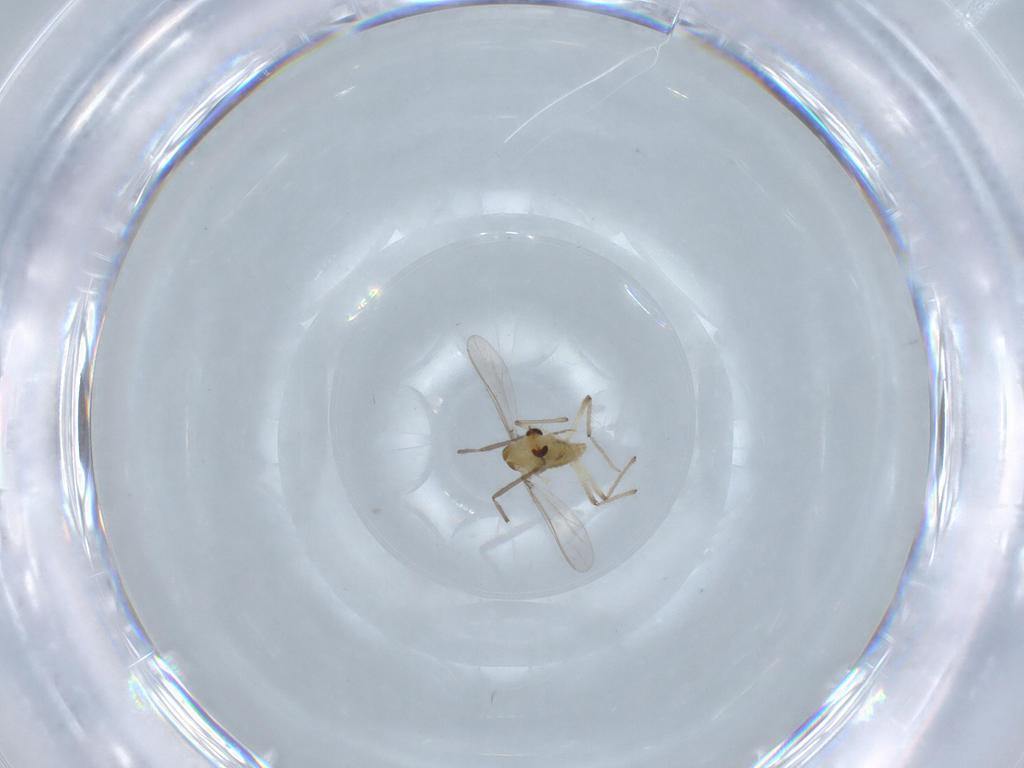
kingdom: Animalia
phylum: Arthropoda
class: Insecta
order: Diptera
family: Chironomidae
